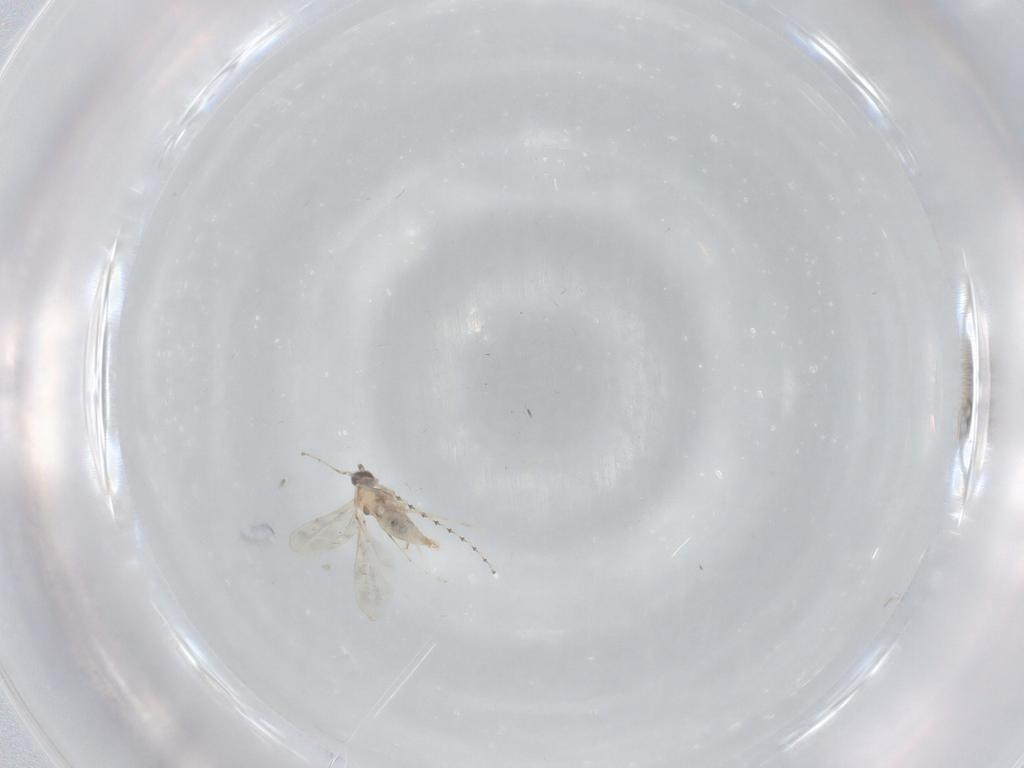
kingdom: Animalia
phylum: Arthropoda
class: Insecta
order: Diptera
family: Cecidomyiidae
